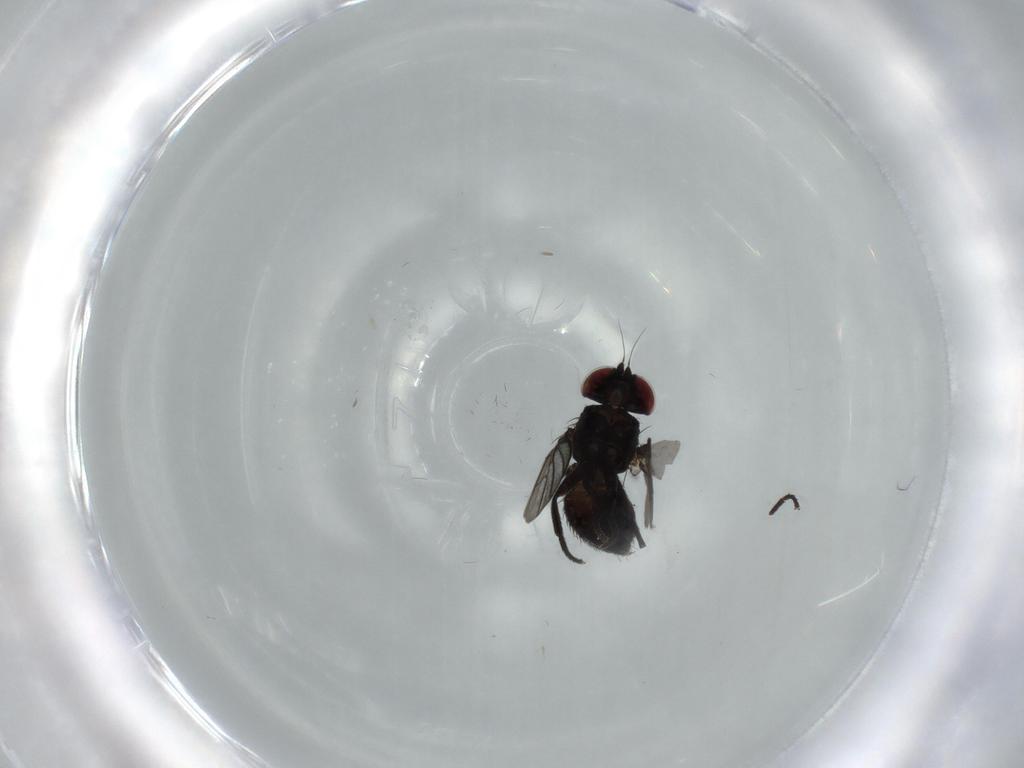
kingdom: Animalia
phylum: Arthropoda
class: Insecta
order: Diptera
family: Agromyzidae
